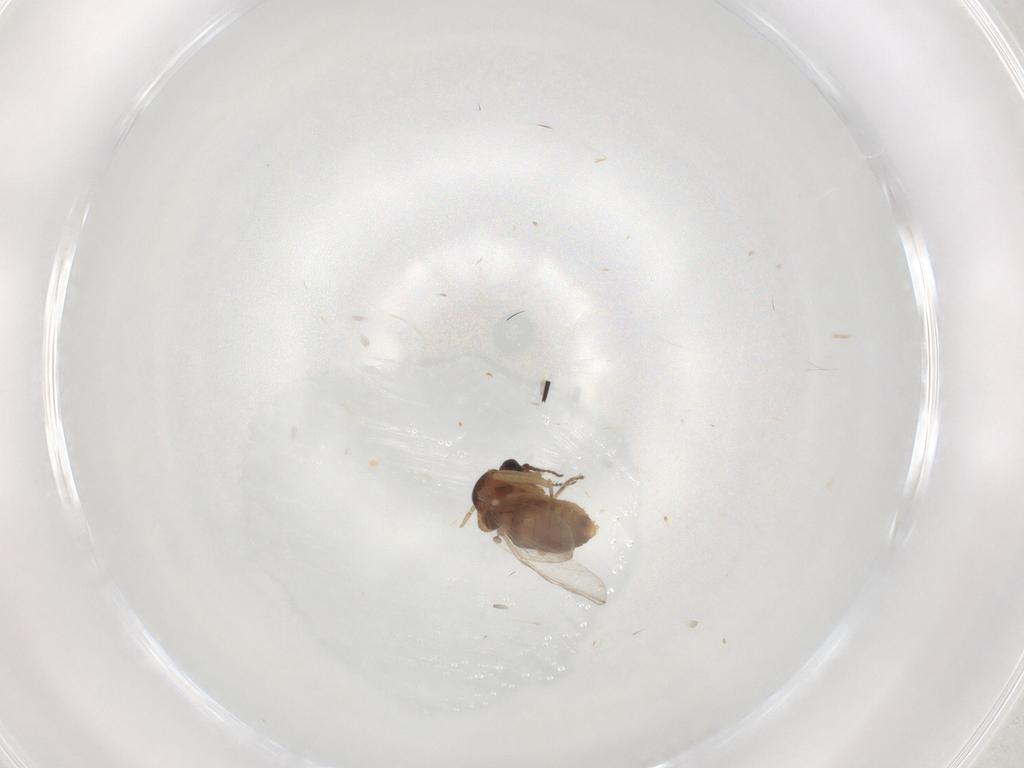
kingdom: Animalia
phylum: Arthropoda
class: Insecta
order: Diptera
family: Ceratopogonidae
